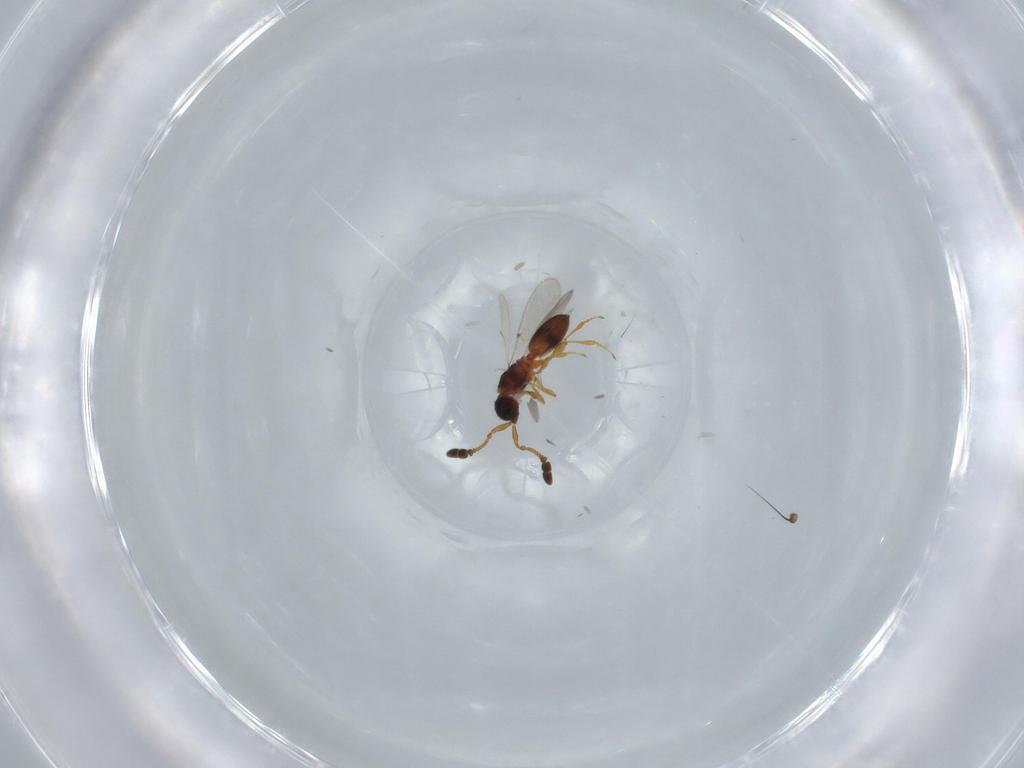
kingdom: Animalia
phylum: Arthropoda
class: Insecta
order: Hymenoptera
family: Diapriidae
